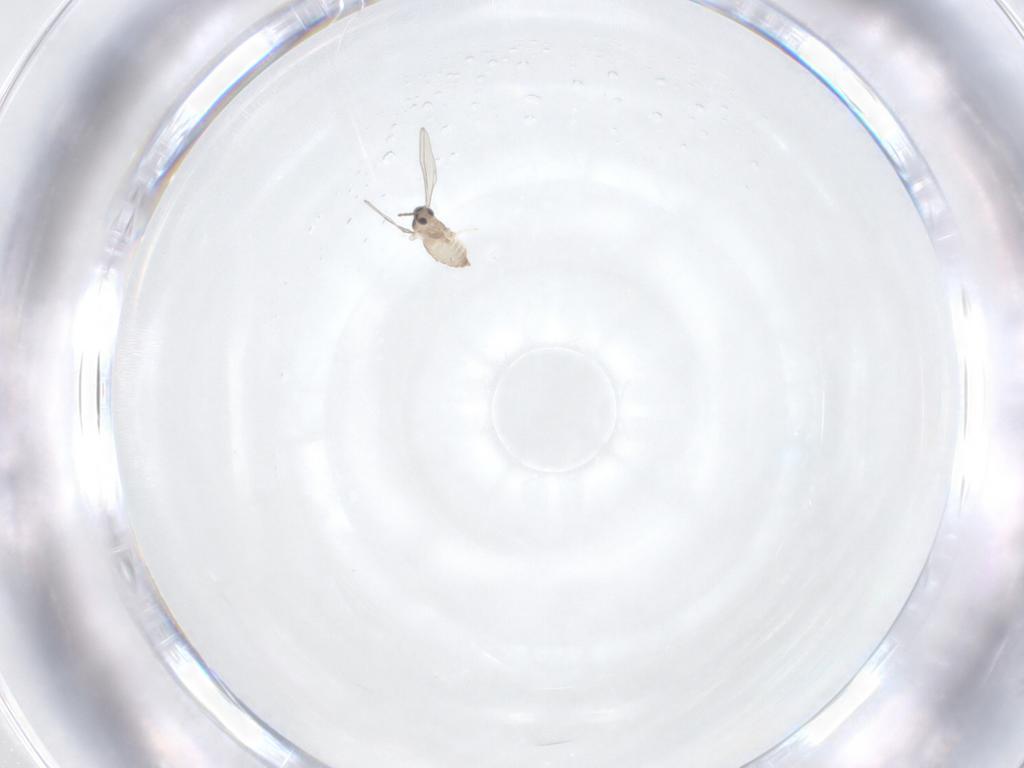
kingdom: Animalia
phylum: Arthropoda
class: Insecta
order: Diptera
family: Cecidomyiidae
